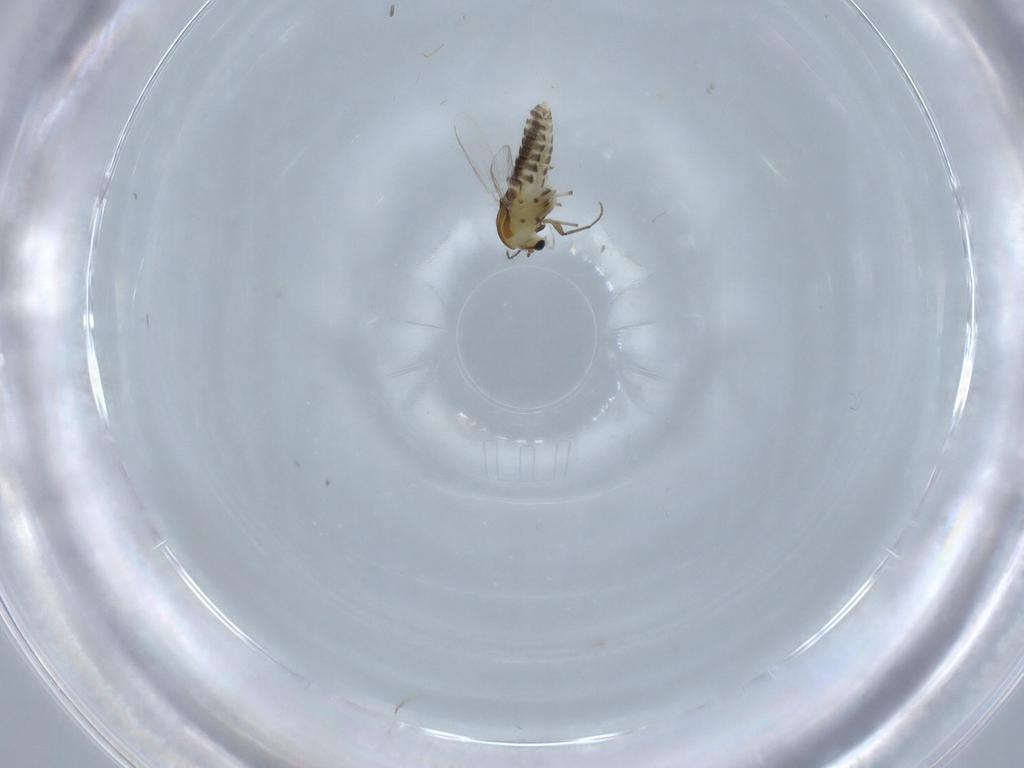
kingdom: Animalia
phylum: Arthropoda
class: Insecta
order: Diptera
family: Chironomidae
